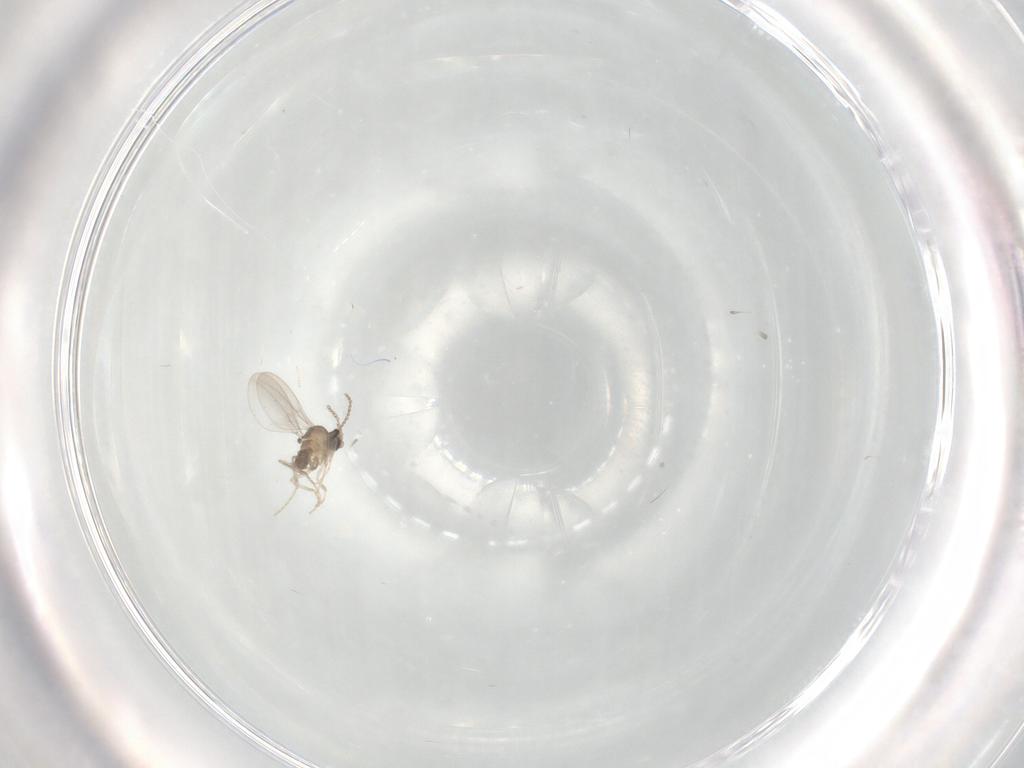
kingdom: Animalia
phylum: Arthropoda
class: Insecta
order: Diptera
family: Cecidomyiidae
